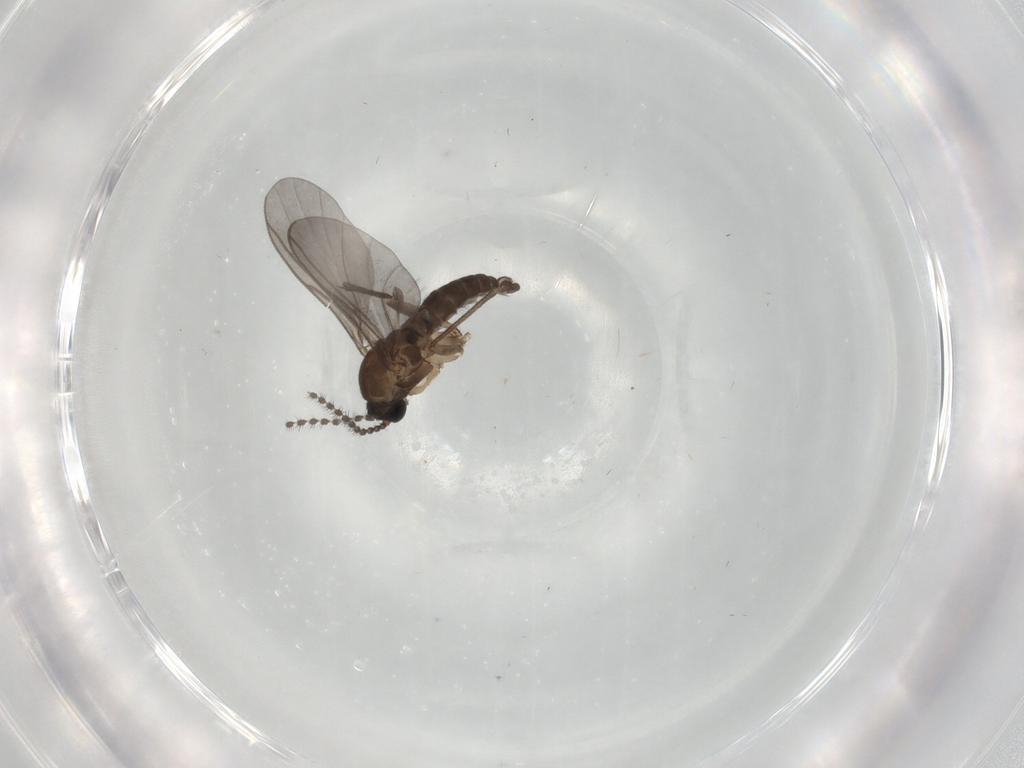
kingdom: Animalia
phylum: Arthropoda
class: Insecta
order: Diptera
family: Sciaridae
